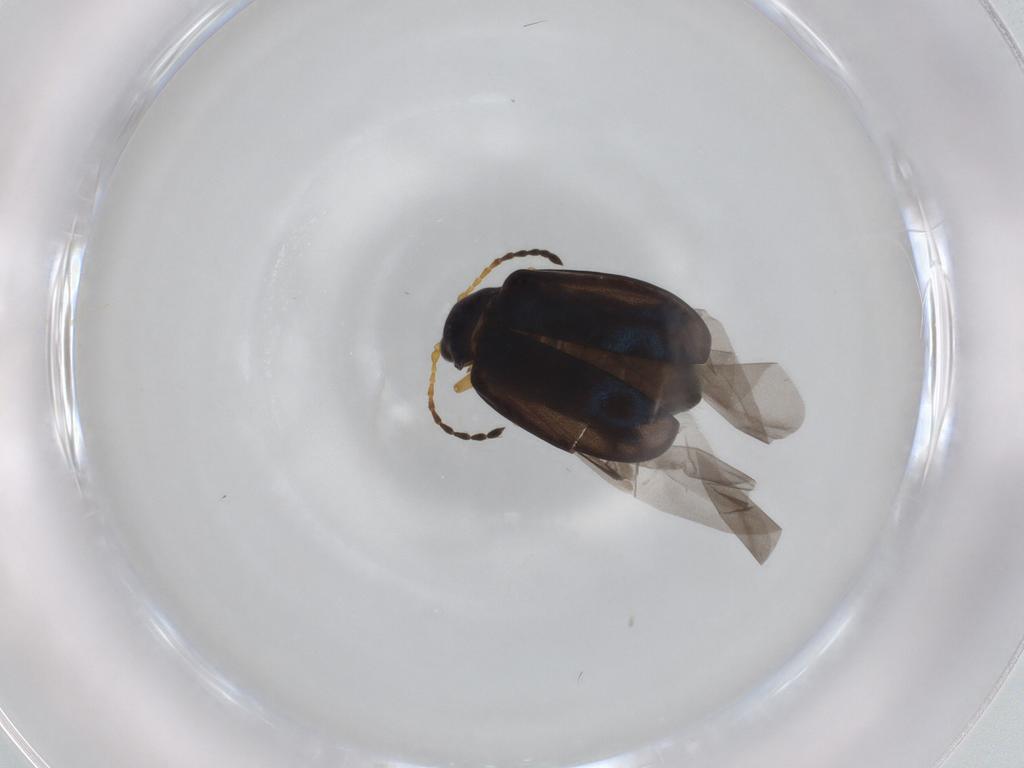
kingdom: Animalia
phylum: Arthropoda
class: Insecta
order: Coleoptera
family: Chrysomelidae
